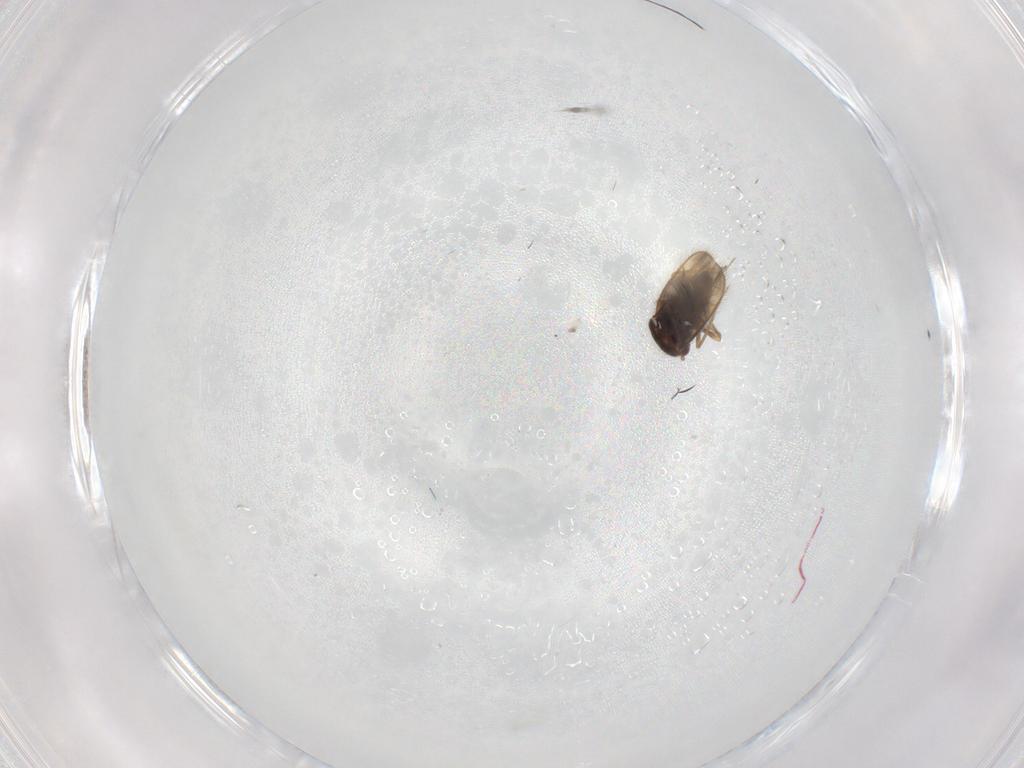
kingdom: Animalia
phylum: Arthropoda
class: Insecta
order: Hemiptera
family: Schizopteridae
